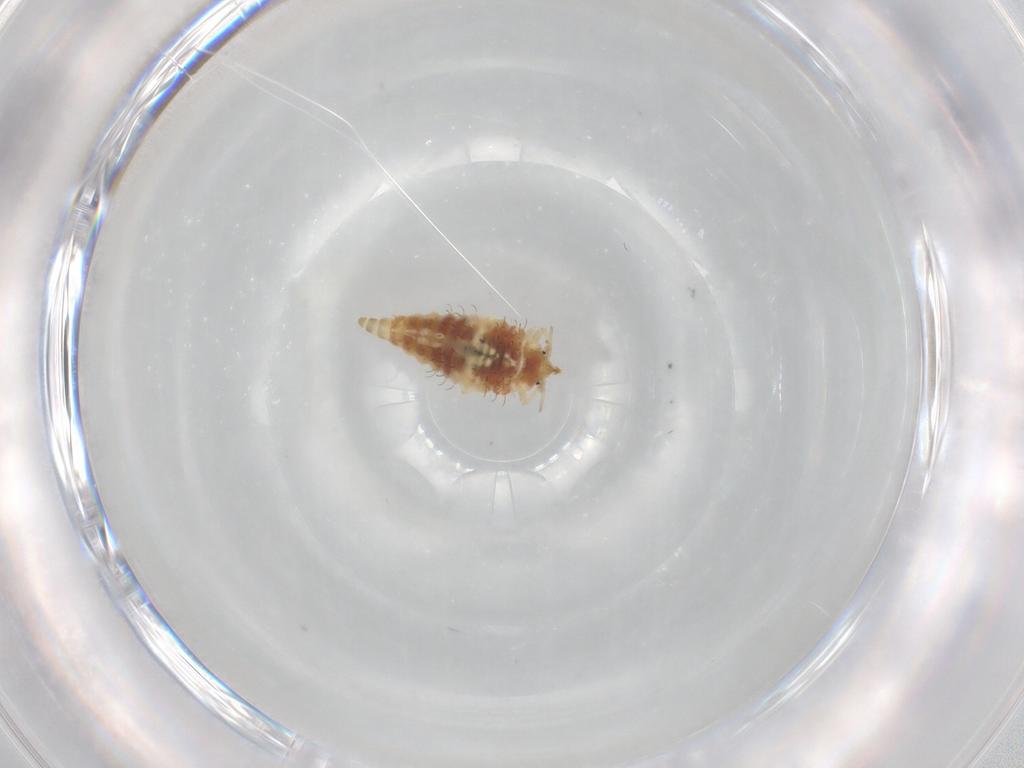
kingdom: Animalia
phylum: Arthropoda
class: Insecta
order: Neuroptera
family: Coniopterygidae
